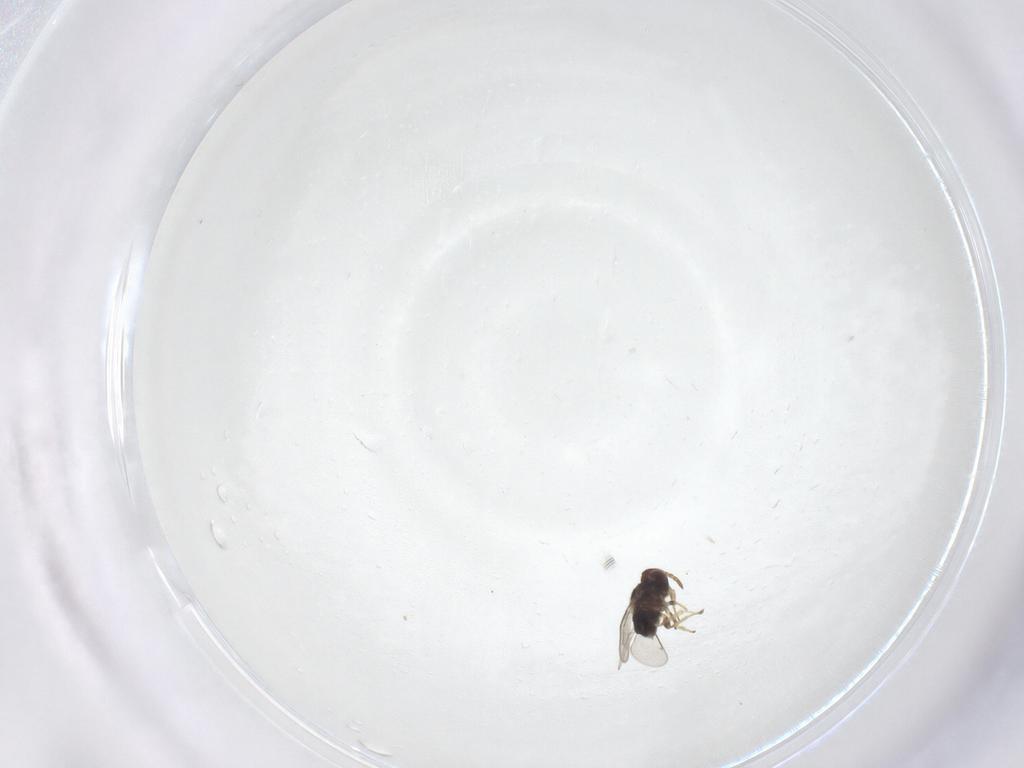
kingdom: Animalia
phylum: Arthropoda
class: Insecta
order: Hymenoptera
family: Aphelinidae
